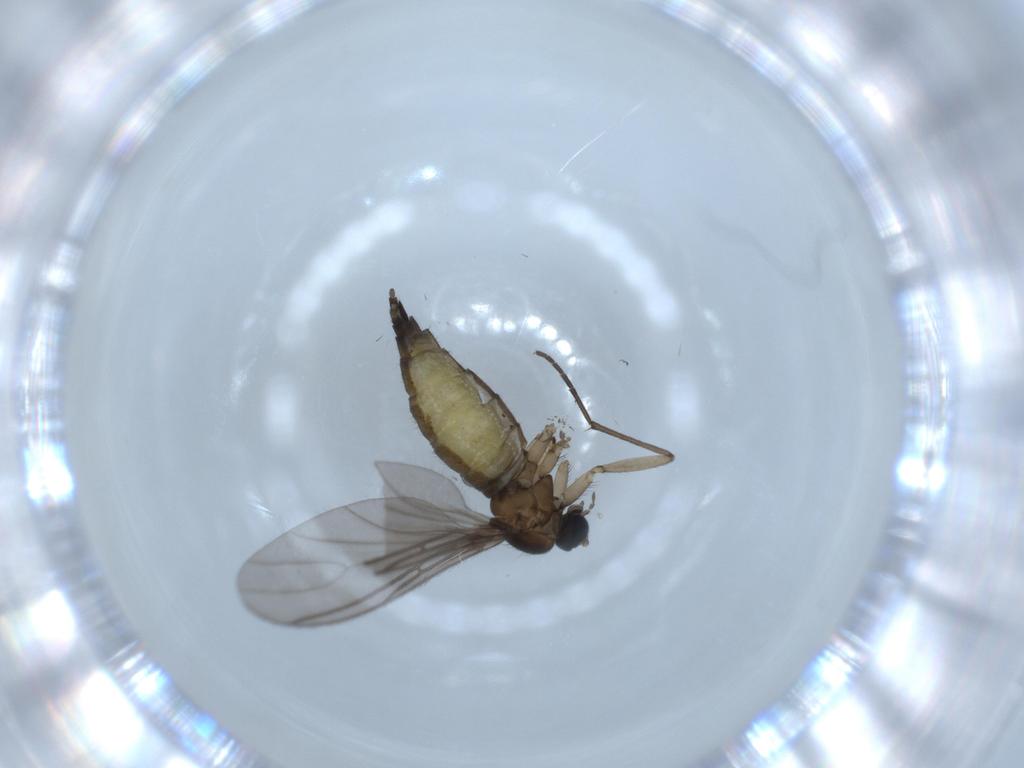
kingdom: Animalia
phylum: Arthropoda
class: Insecta
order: Diptera
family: Sciaridae
